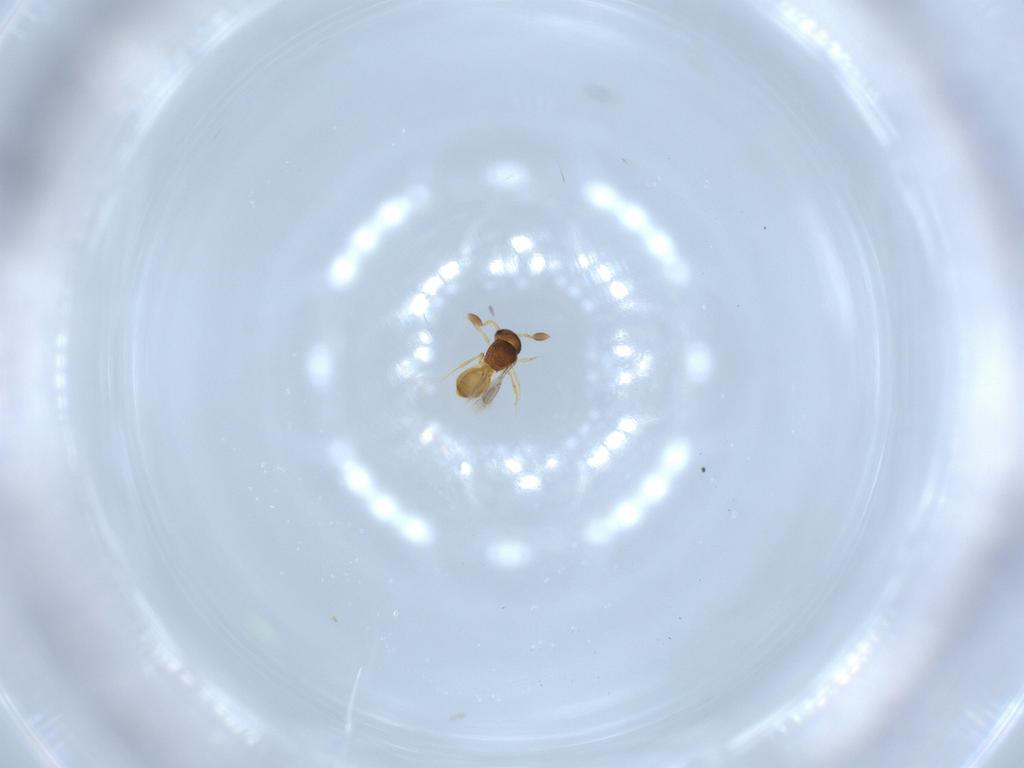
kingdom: Animalia
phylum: Arthropoda
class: Insecta
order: Hymenoptera
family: Scelionidae
